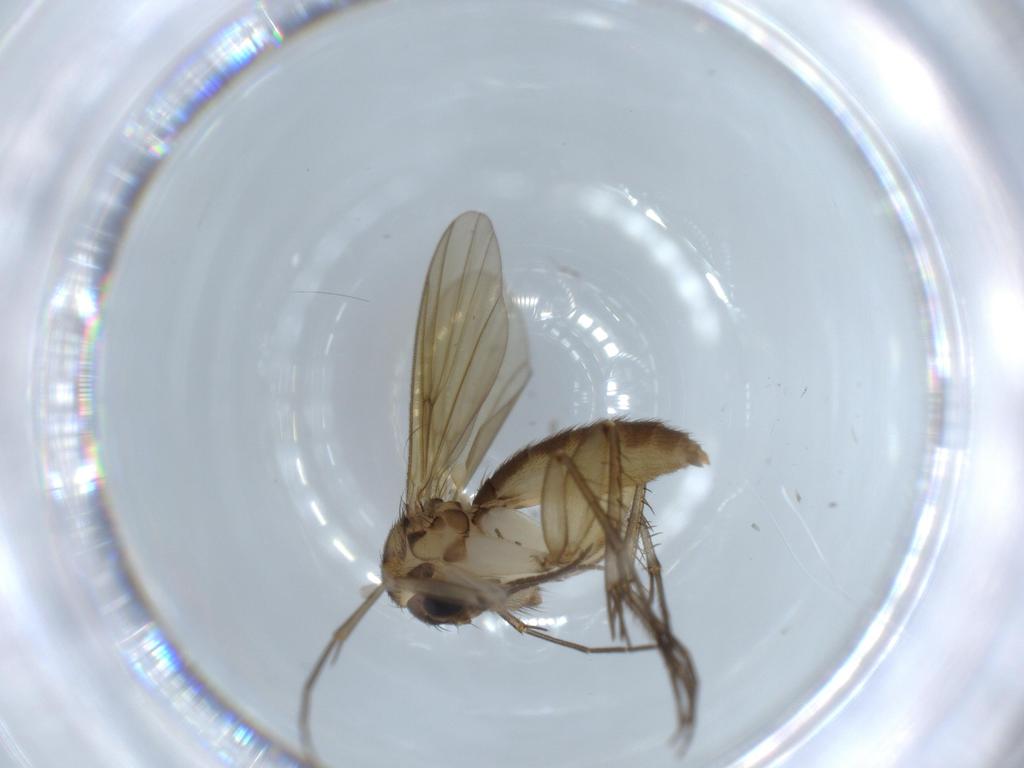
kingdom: Animalia
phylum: Arthropoda
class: Insecta
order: Diptera
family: Mycetophilidae
